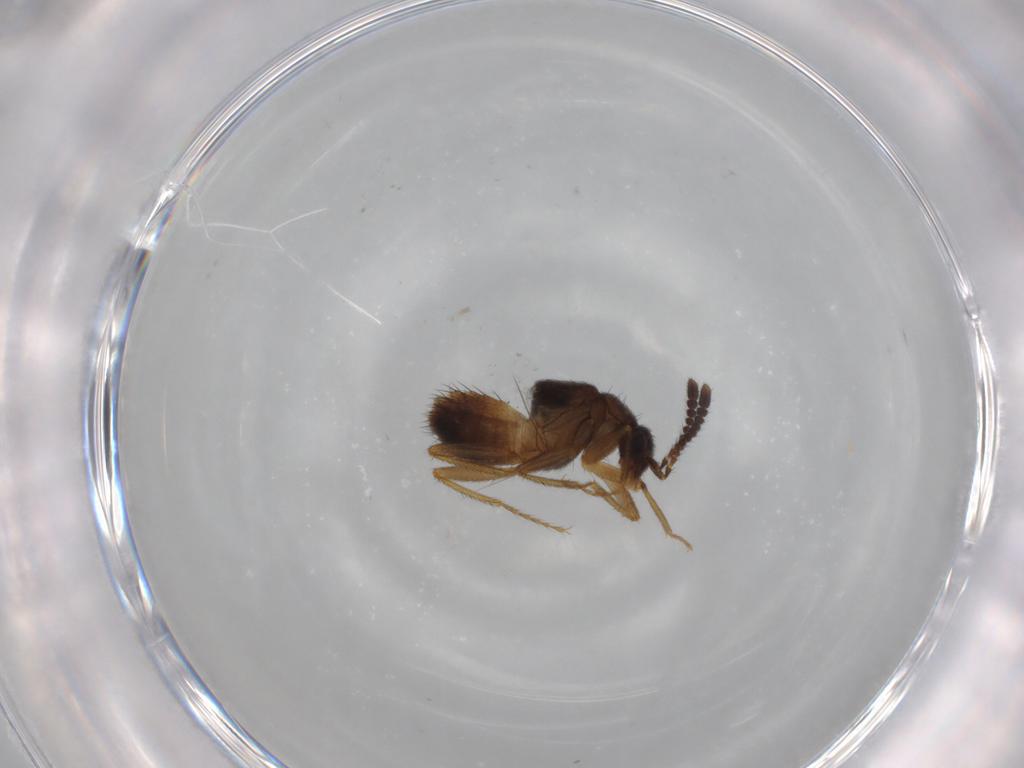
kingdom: Animalia
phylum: Arthropoda
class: Insecta
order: Coleoptera
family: Staphylinidae
